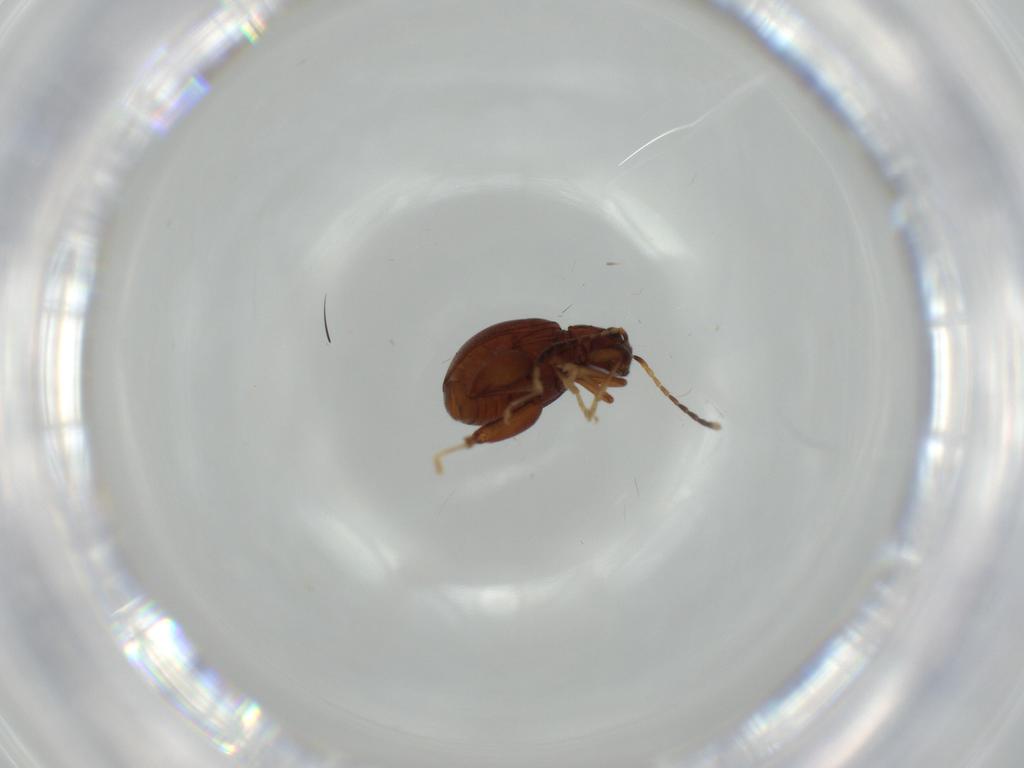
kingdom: Animalia
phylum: Arthropoda
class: Insecta
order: Coleoptera
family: Chrysomelidae
